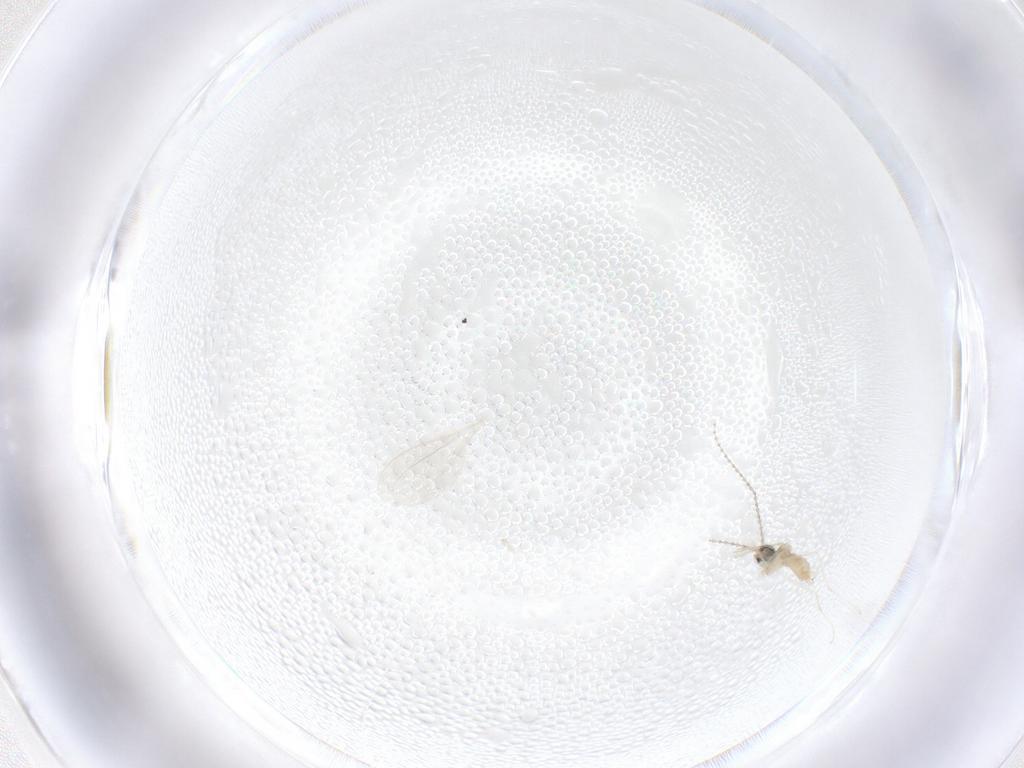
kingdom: Animalia
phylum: Arthropoda
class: Insecta
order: Diptera
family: Cecidomyiidae
